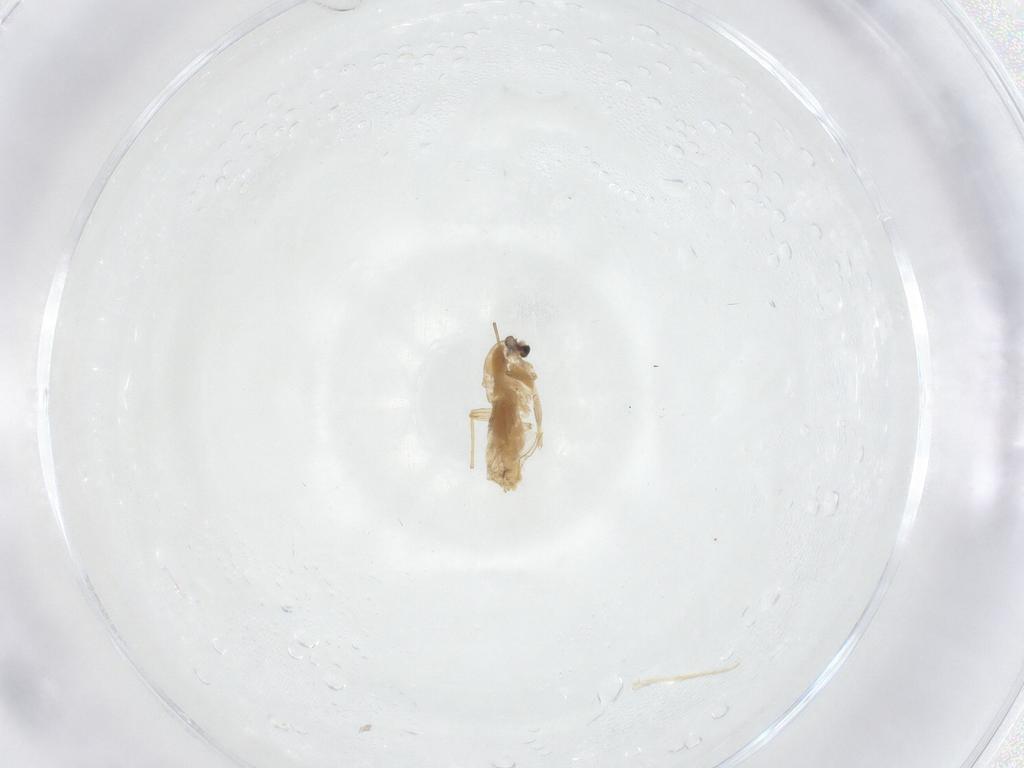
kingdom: Animalia
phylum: Arthropoda
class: Insecta
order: Diptera
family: Chironomidae
